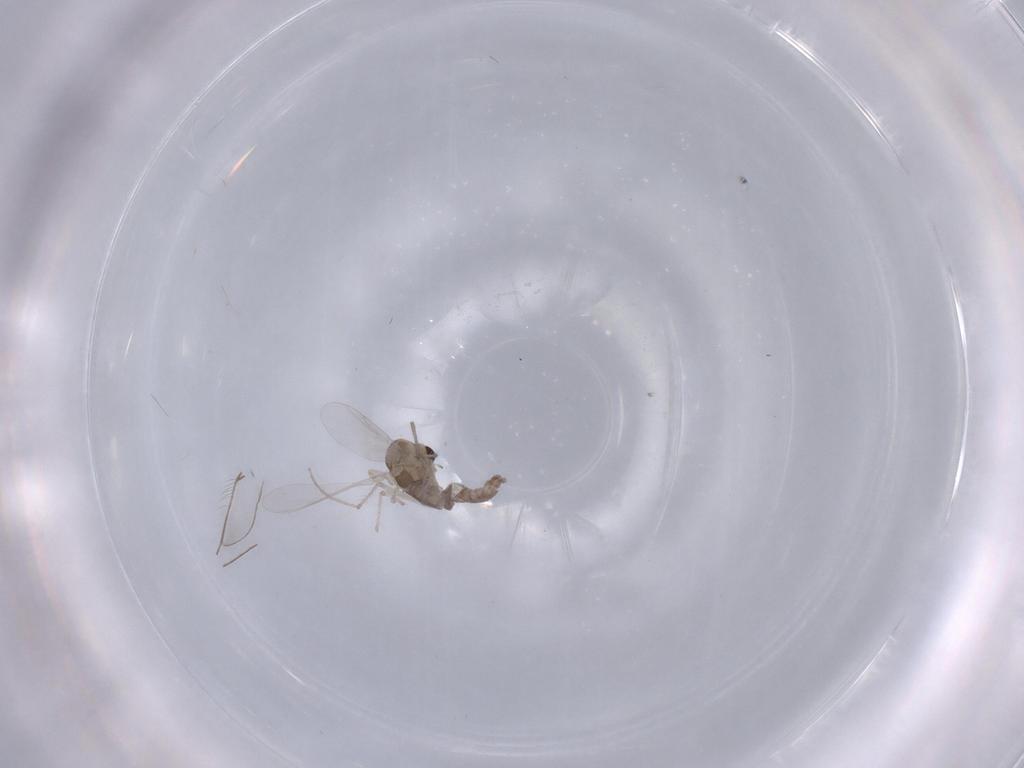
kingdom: Animalia
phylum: Arthropoda
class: Insecta
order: Diptera
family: Chironomidae
